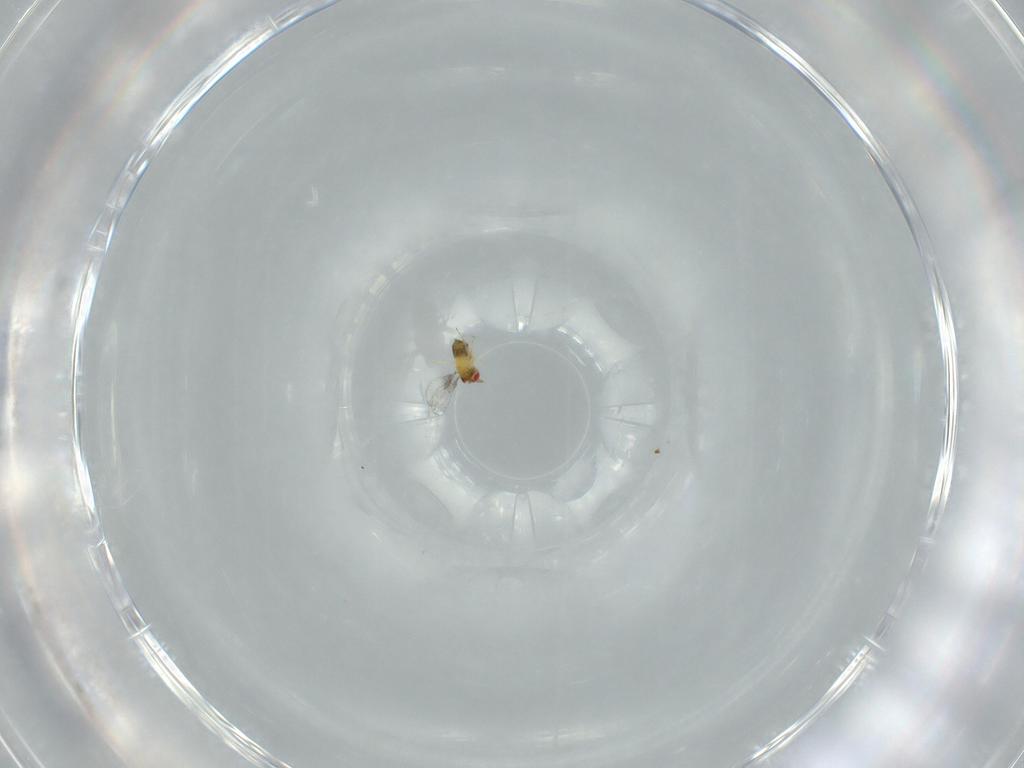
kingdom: Animalia
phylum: Arthropoda
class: Insecta
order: Hymenoptera
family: Trichogrammatidae
